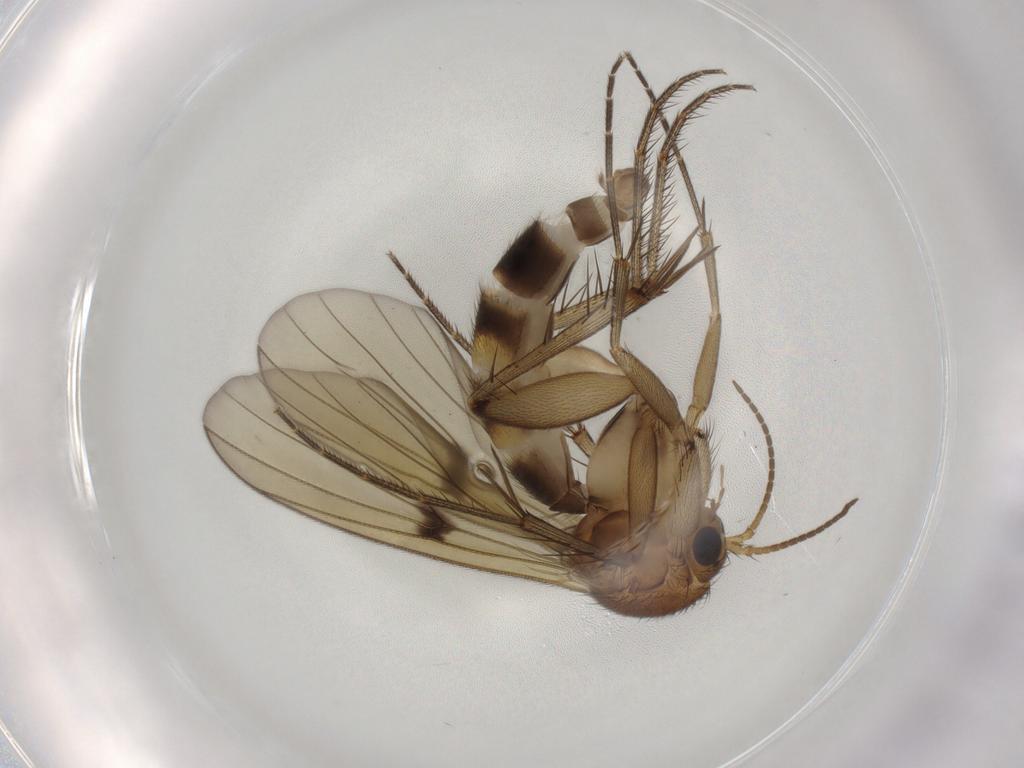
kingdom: Animalia
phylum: Arthropoda
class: Insecta
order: Diptera
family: Mycetophilidae
